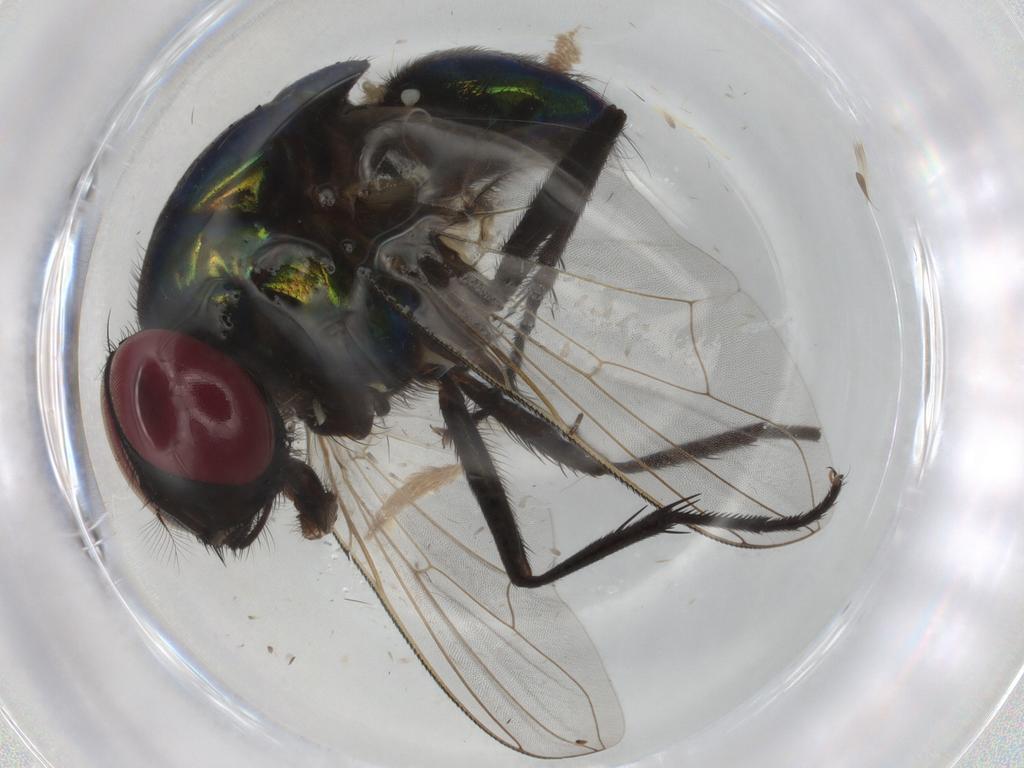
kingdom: Animalia
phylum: Arthropoda
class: Insecta
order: Diptera
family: Muscidae
